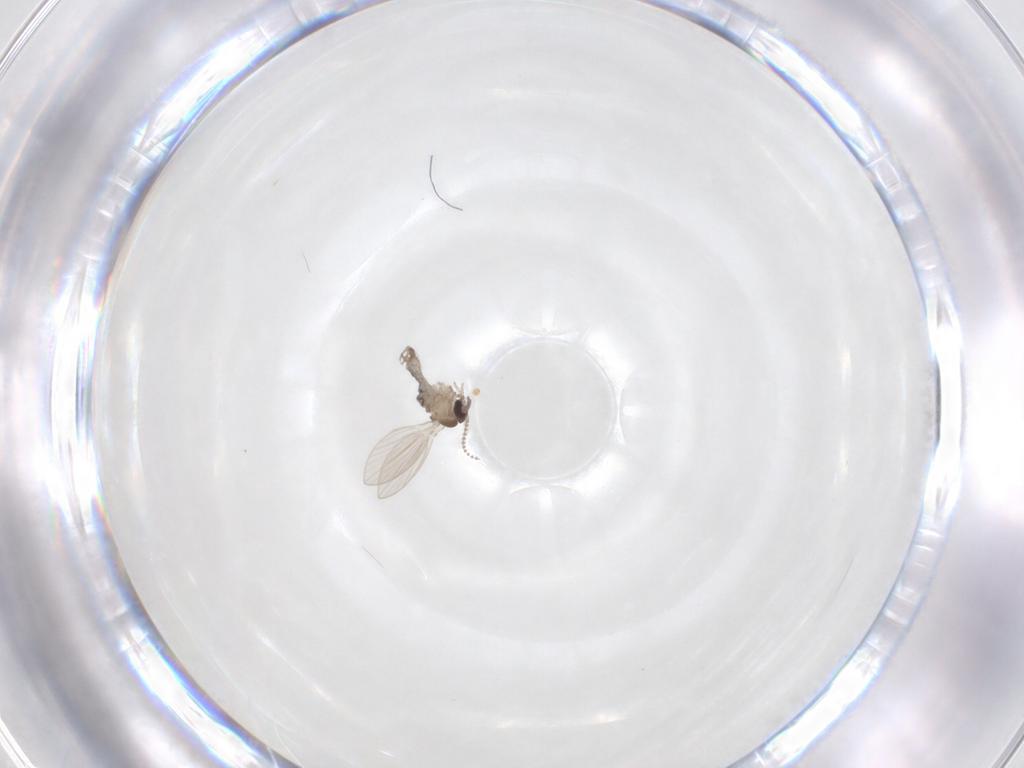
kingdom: Animalia
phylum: Arthropoda
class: Insecta
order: Diptera
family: Psychodidae
